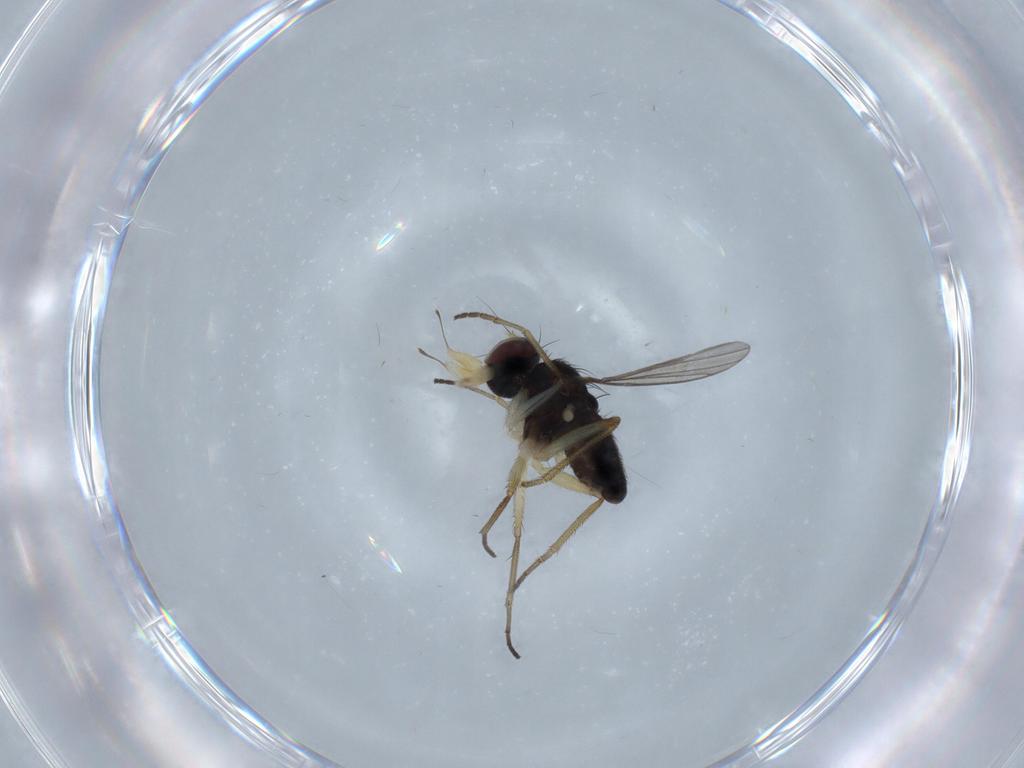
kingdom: Animalia
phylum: Arthropoda
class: Insecta
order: Diptera
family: Dolichopodidae
